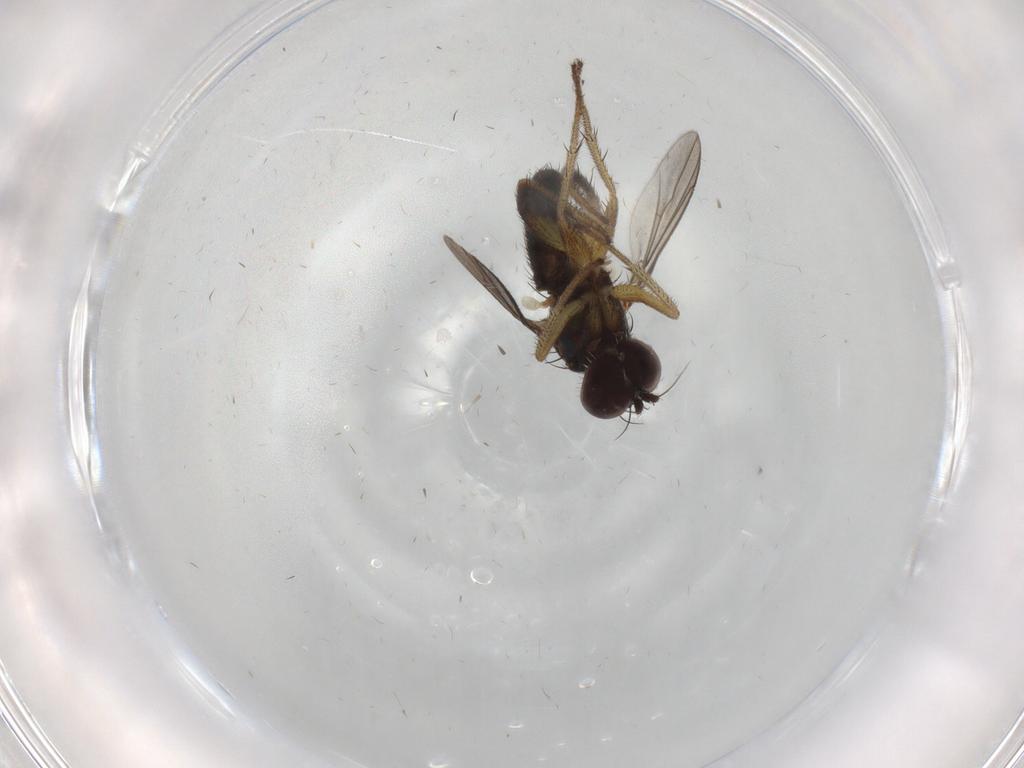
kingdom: Animalia
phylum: Arthropoda
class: Insecta
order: Diptera
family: Dolichopodidae
